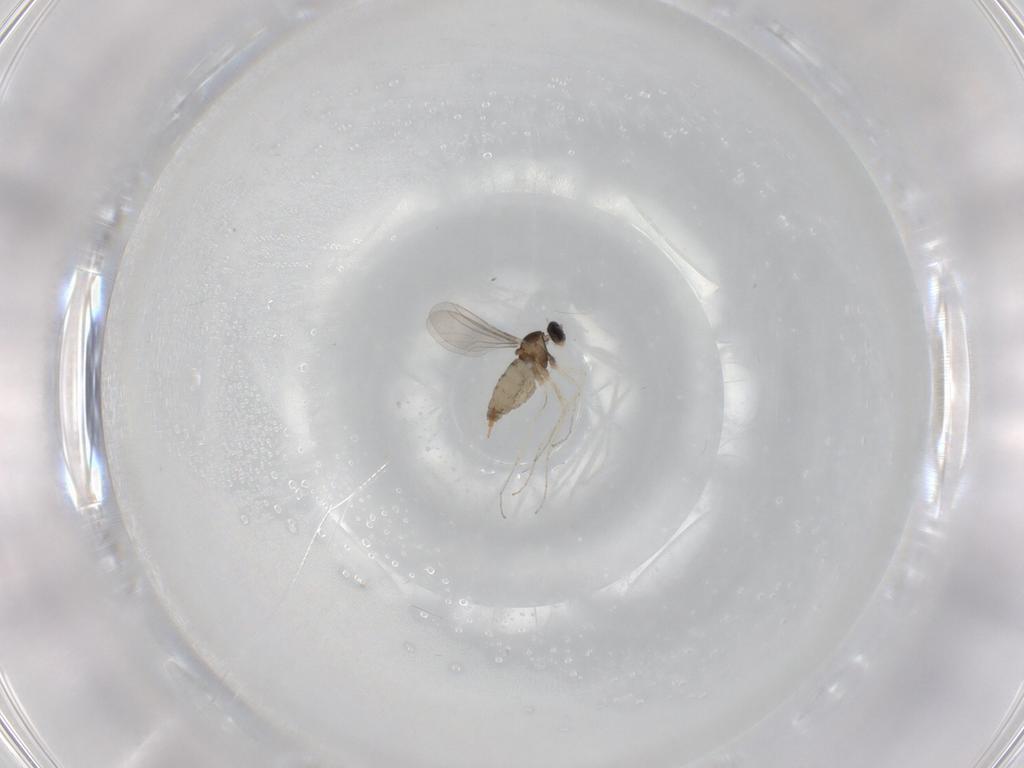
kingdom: Animalia
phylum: Arthropoda
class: Insecta
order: Diptera
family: Cecidomyiidae
